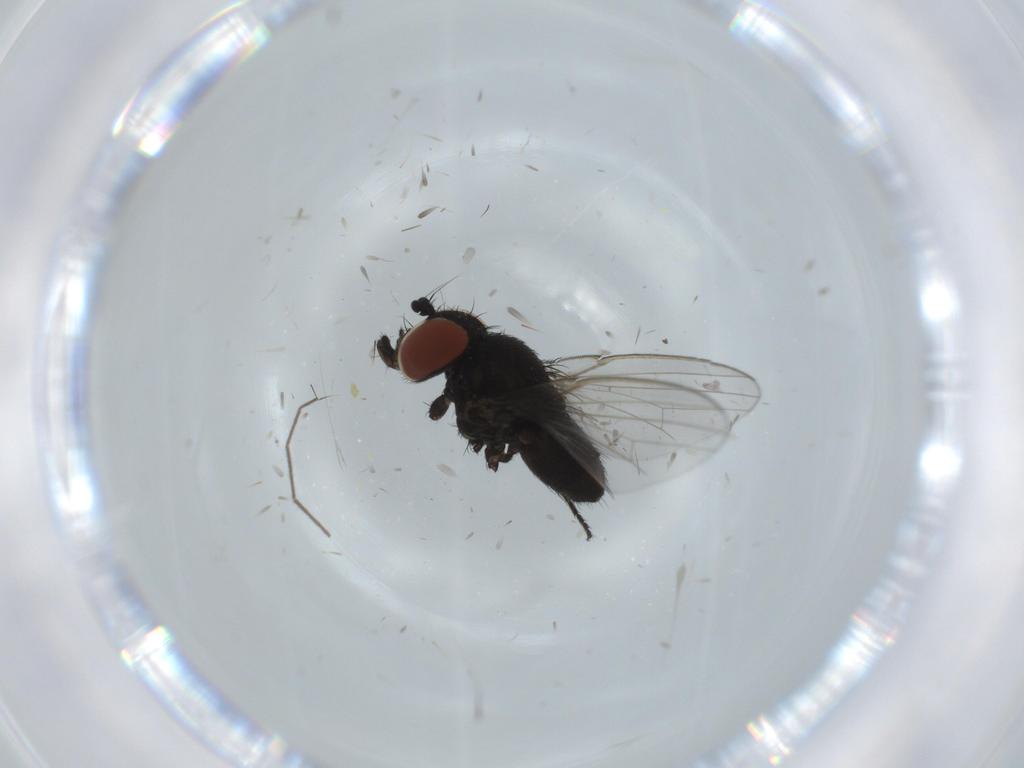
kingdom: Animalia
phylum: Arthropoda
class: Insecta
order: Diptera
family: Milichiidae
